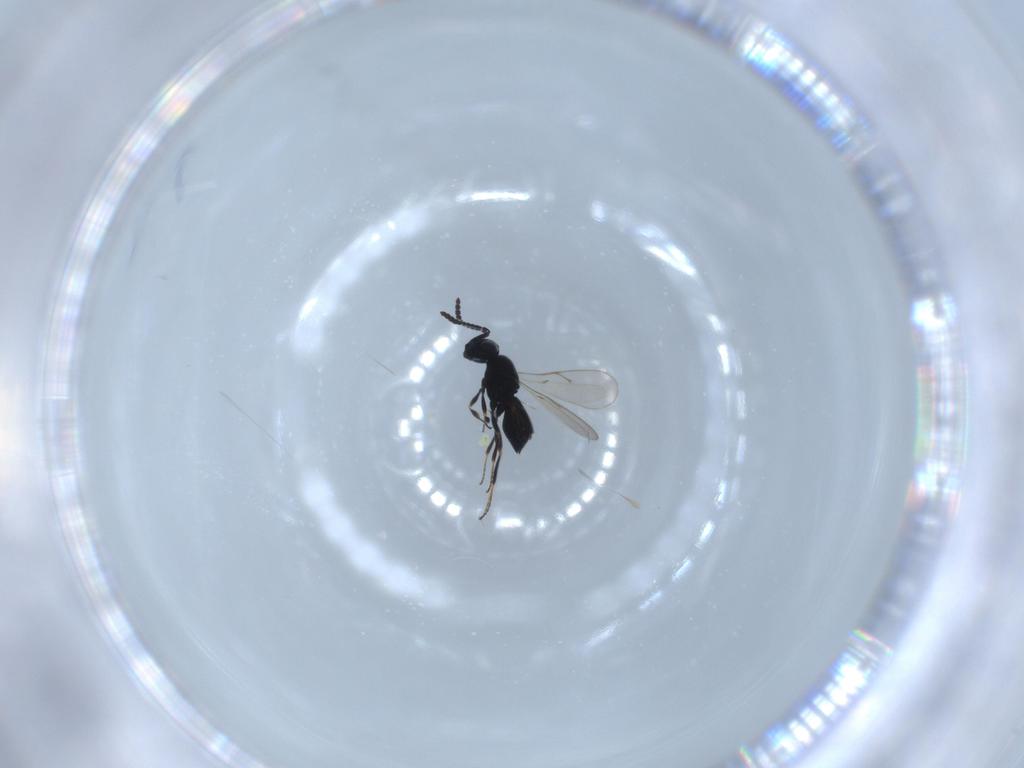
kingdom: Animalia
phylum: Arthropoda
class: Insecta
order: Hymenoptera
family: Scelionidae
